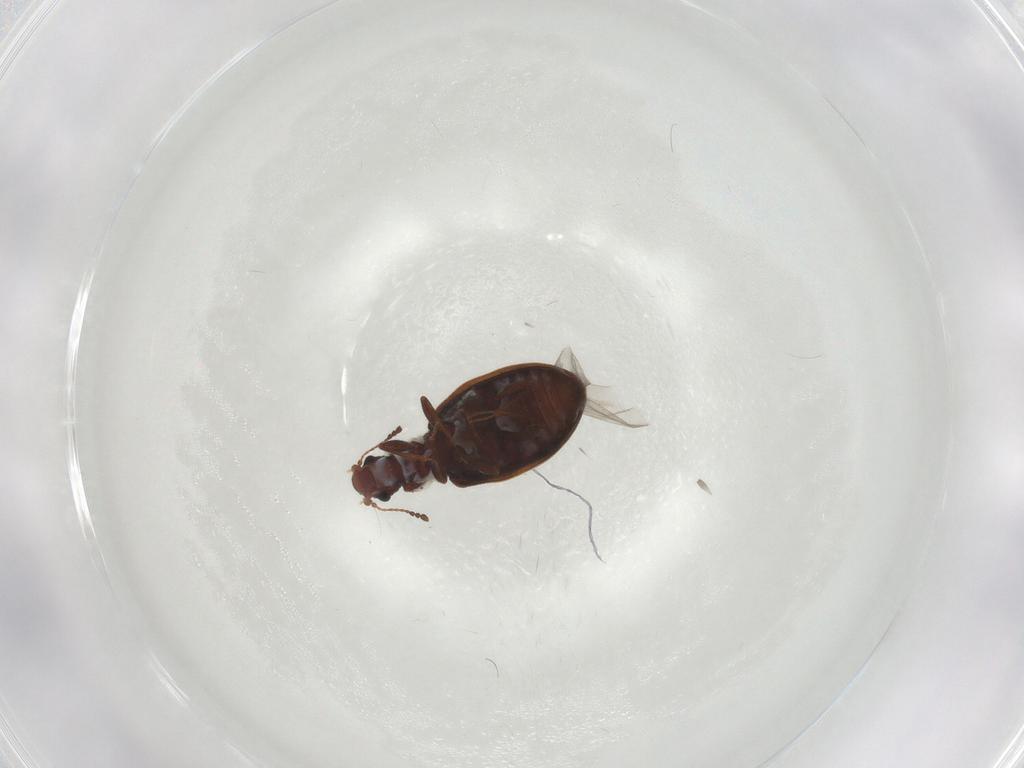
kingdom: Animalia
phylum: Arthropoda
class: Insecta
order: Coleoptera
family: Latridiidae
